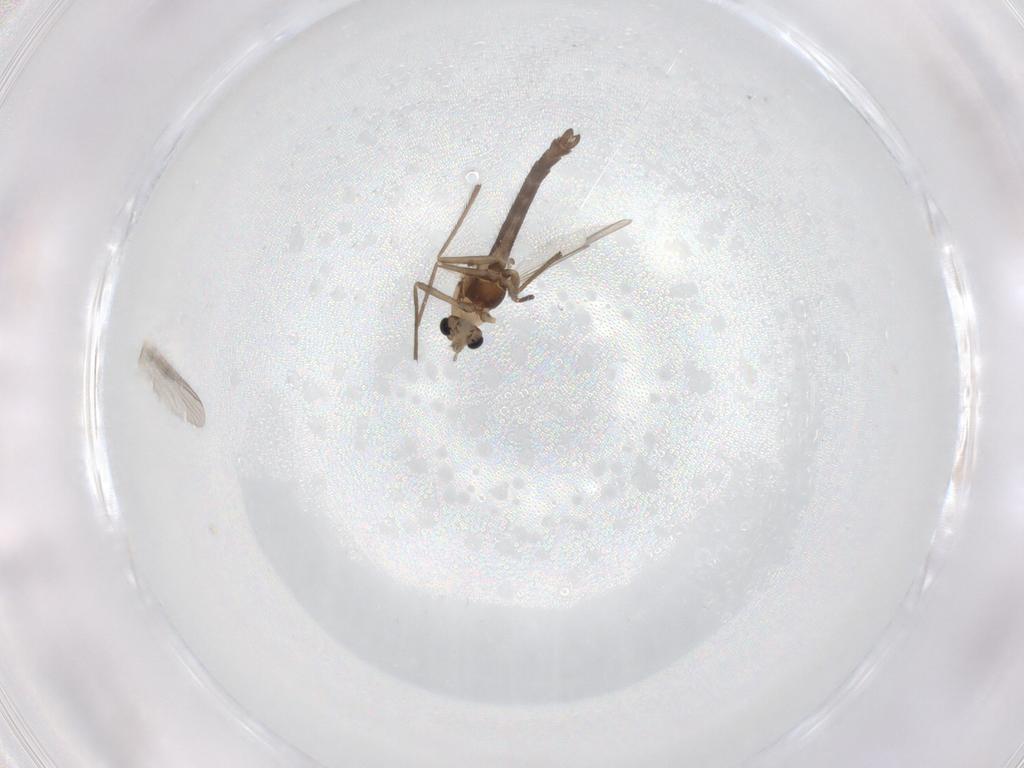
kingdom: Animalia
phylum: Arthropoda
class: Insecta
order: Diptera
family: Chironomidae
